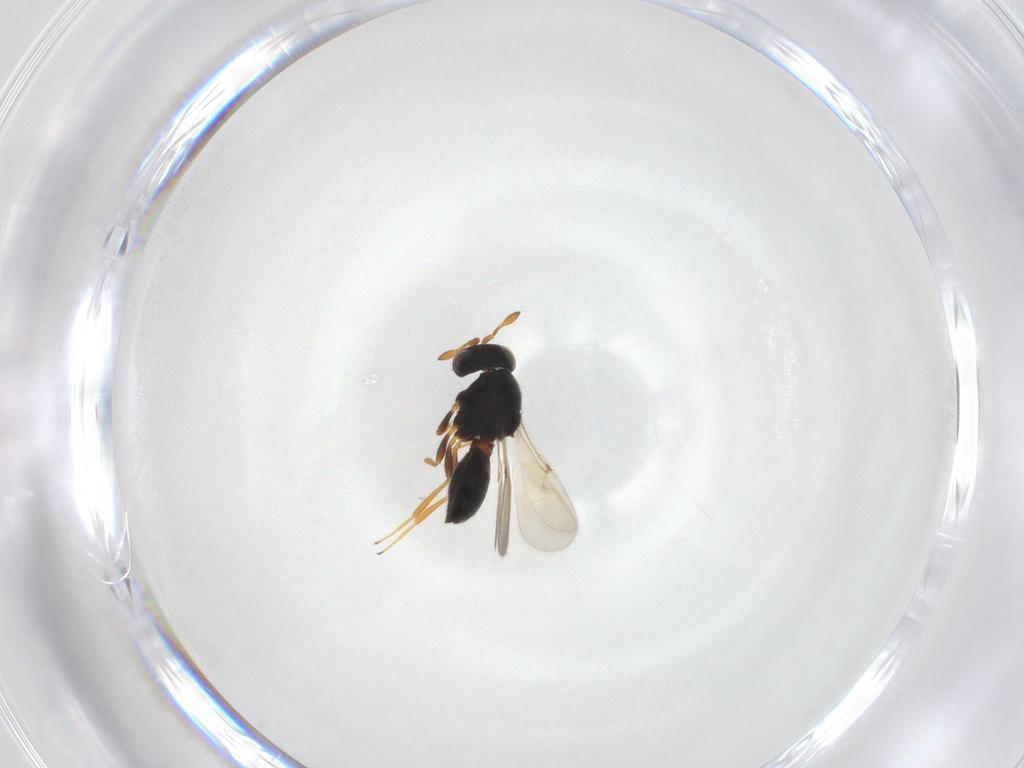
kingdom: Animalia
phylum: Arthropoda
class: Insecta
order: Hymenoptera
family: Scelionidae
